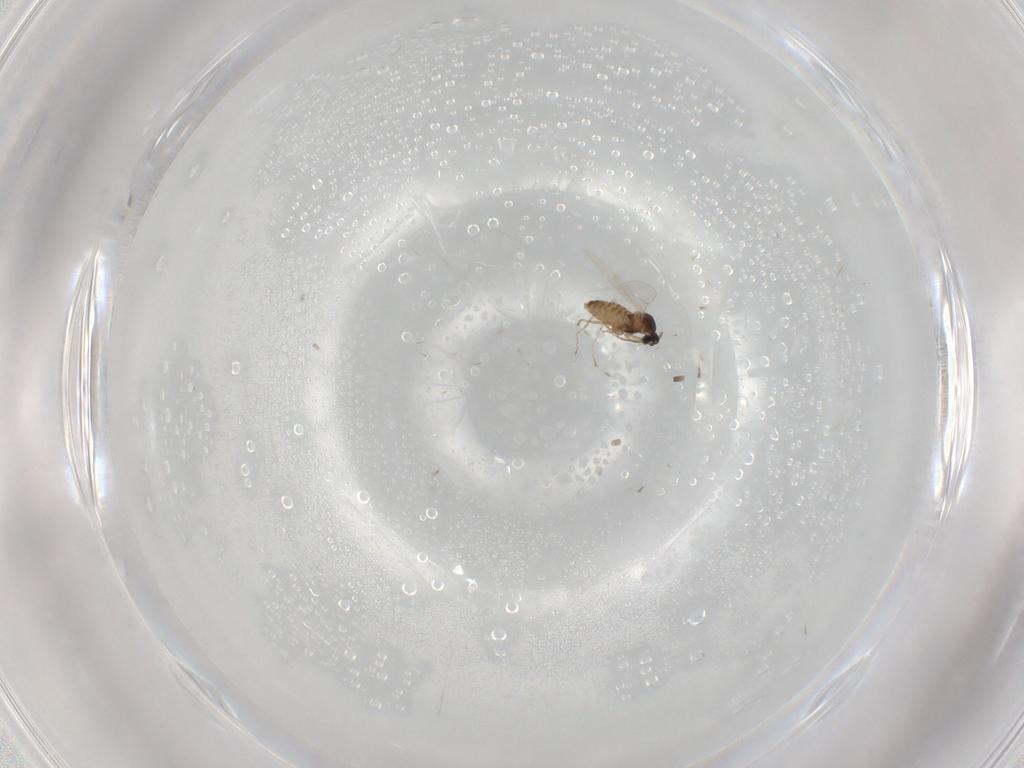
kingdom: Animalia
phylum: Arthropoda
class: Insecta
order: Diptera
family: Cecidomyiidae
